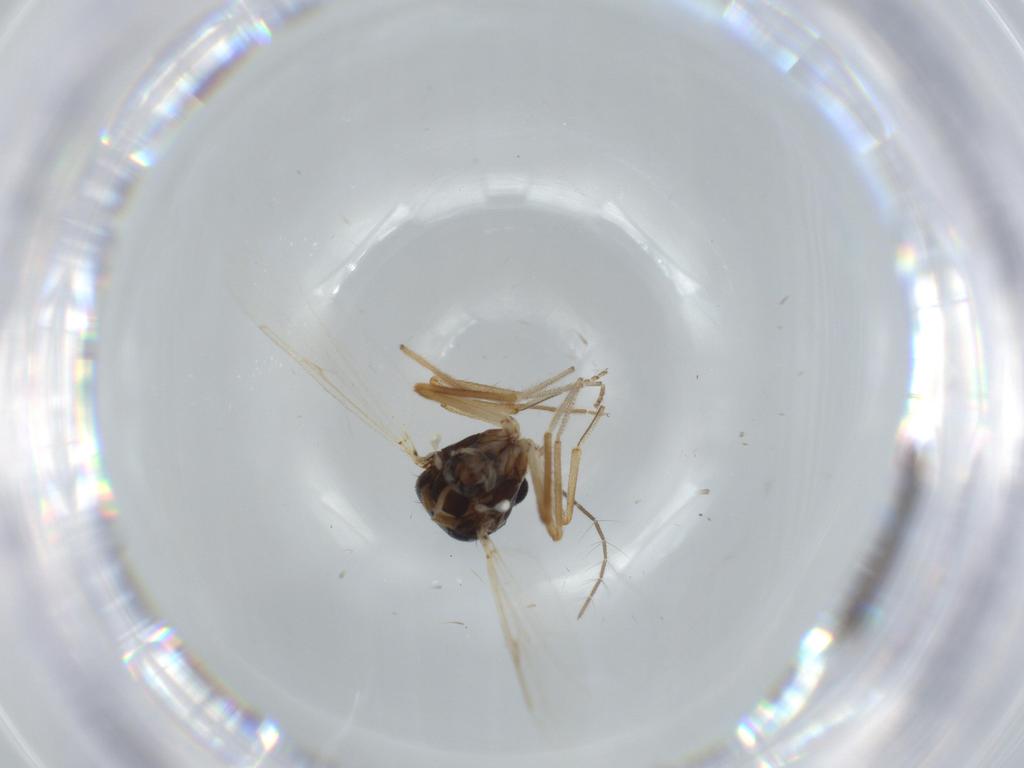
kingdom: Animalia
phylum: Arthropoda
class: Insecta
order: Diptera
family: Ceratopogonidae
